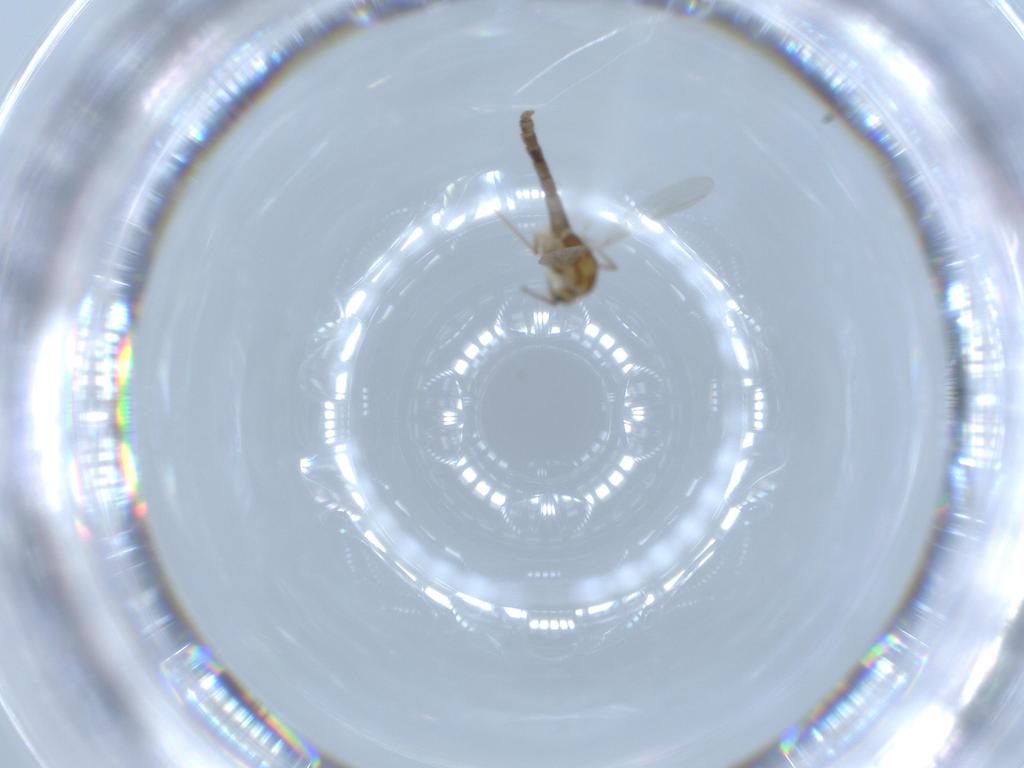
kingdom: Animalia
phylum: Arthropoda
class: Insecta
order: Diptera
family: Chironomidae
